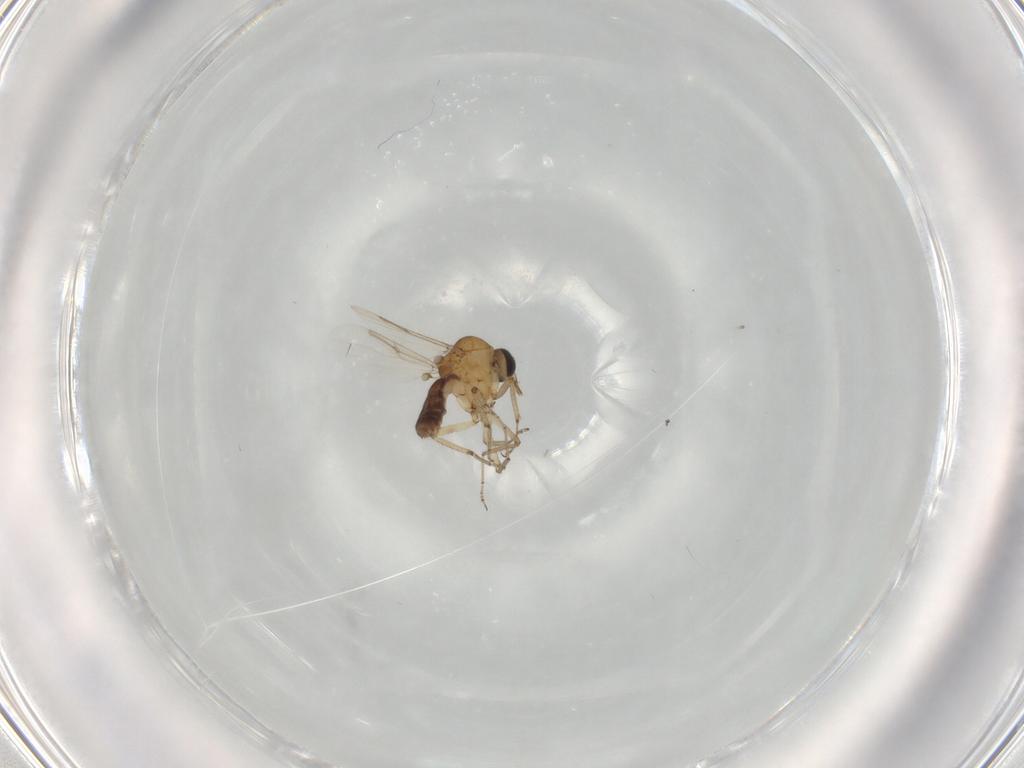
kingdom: Animalia
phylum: Arthropoda
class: Insecta
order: Diptera
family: Ceratopogonidae
